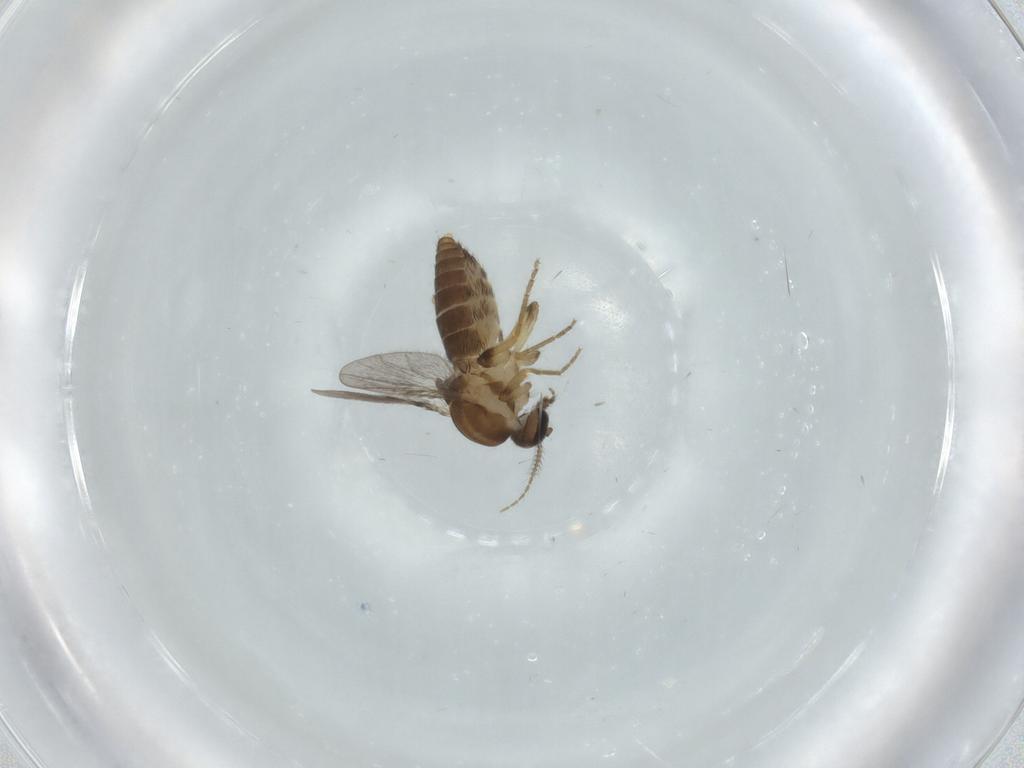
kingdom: Animalia
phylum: Arthropoda
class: Insecta
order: Diptera
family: Ceratopogonidae
